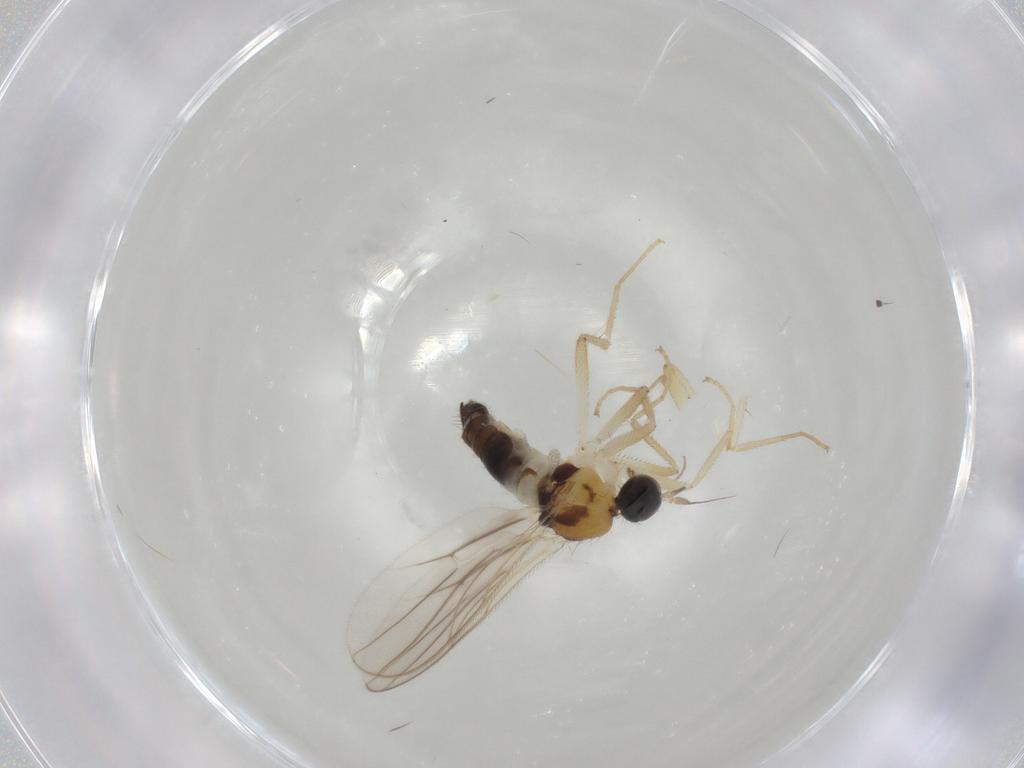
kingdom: Animalia
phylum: Arthropoda
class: Insecta
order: Diptera
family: Hybotidae
